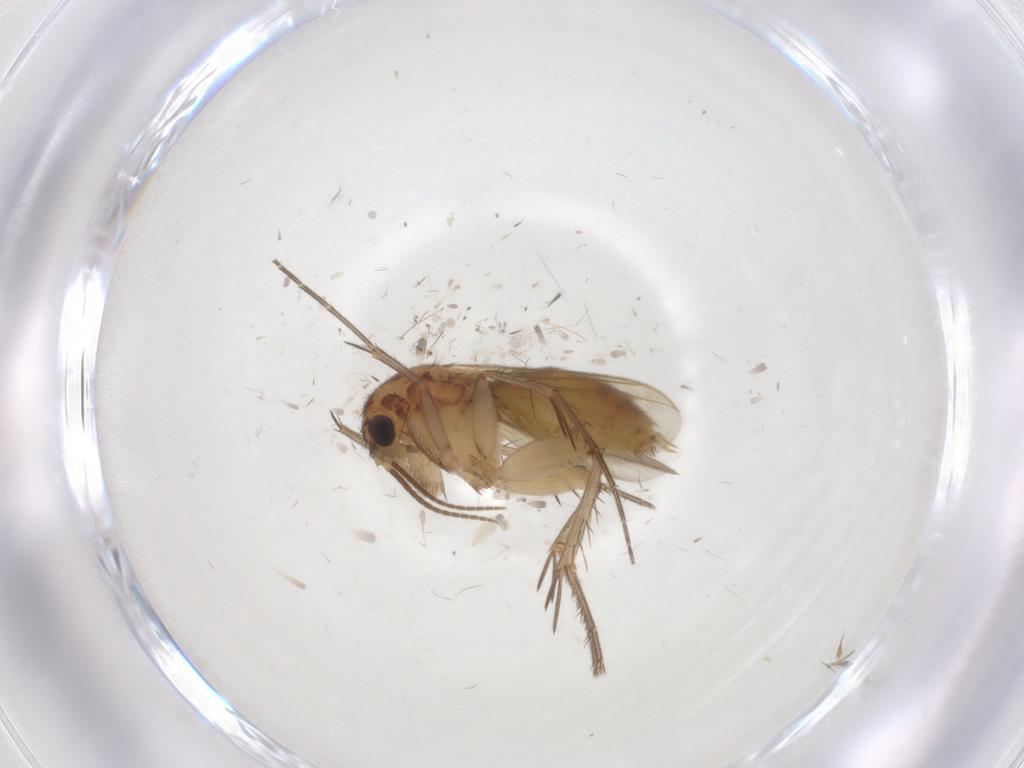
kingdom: Animalia
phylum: Arthropoda
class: Insecta
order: Diptera
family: Mycetophilidae
